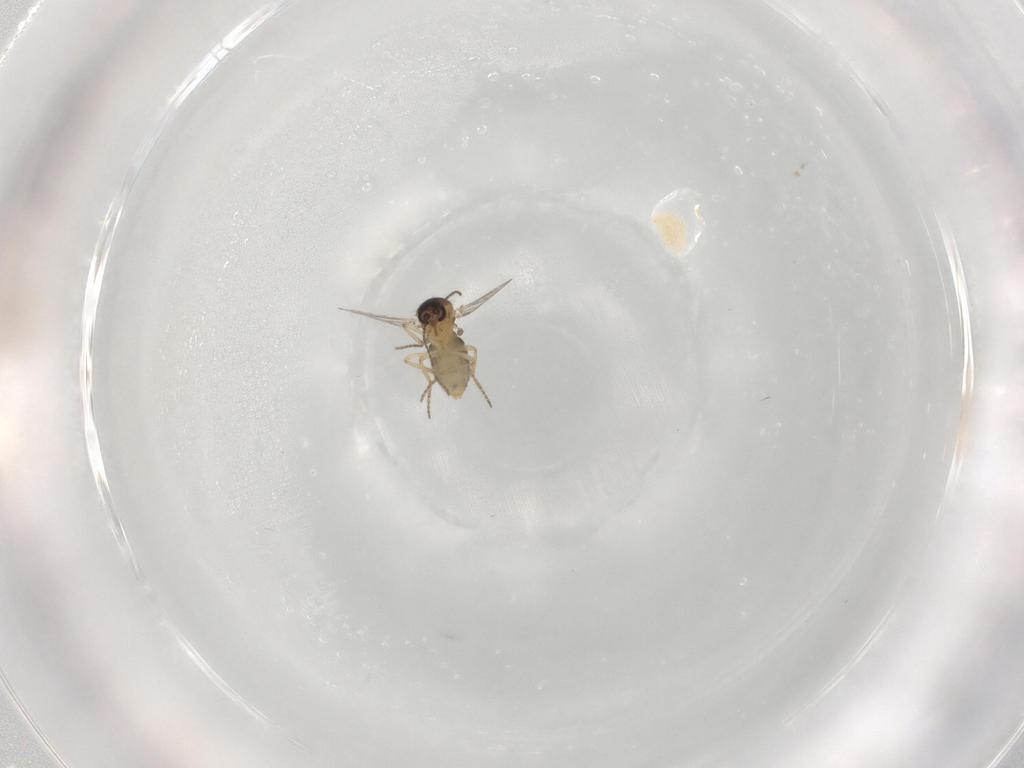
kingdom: Animalia
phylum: Arthropoda
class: Insecta
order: Diptera
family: Ceratopogonidae
